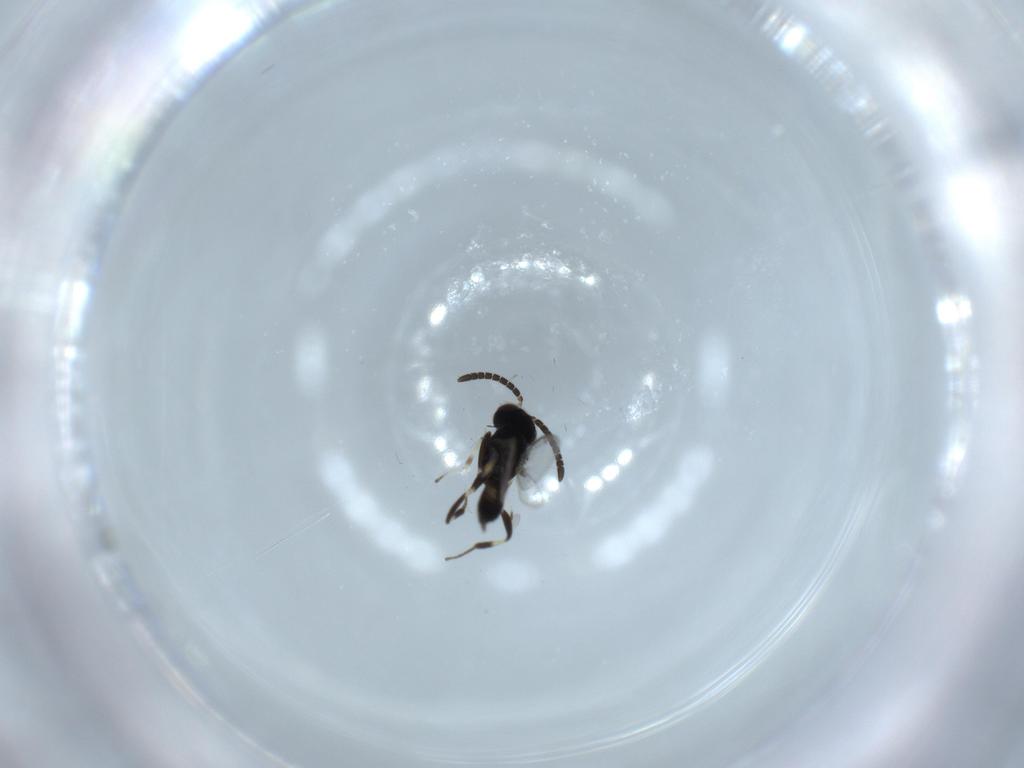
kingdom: Animalia
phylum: Arthropoda
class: Insecta
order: Hymenoptera
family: Eupelmidae
